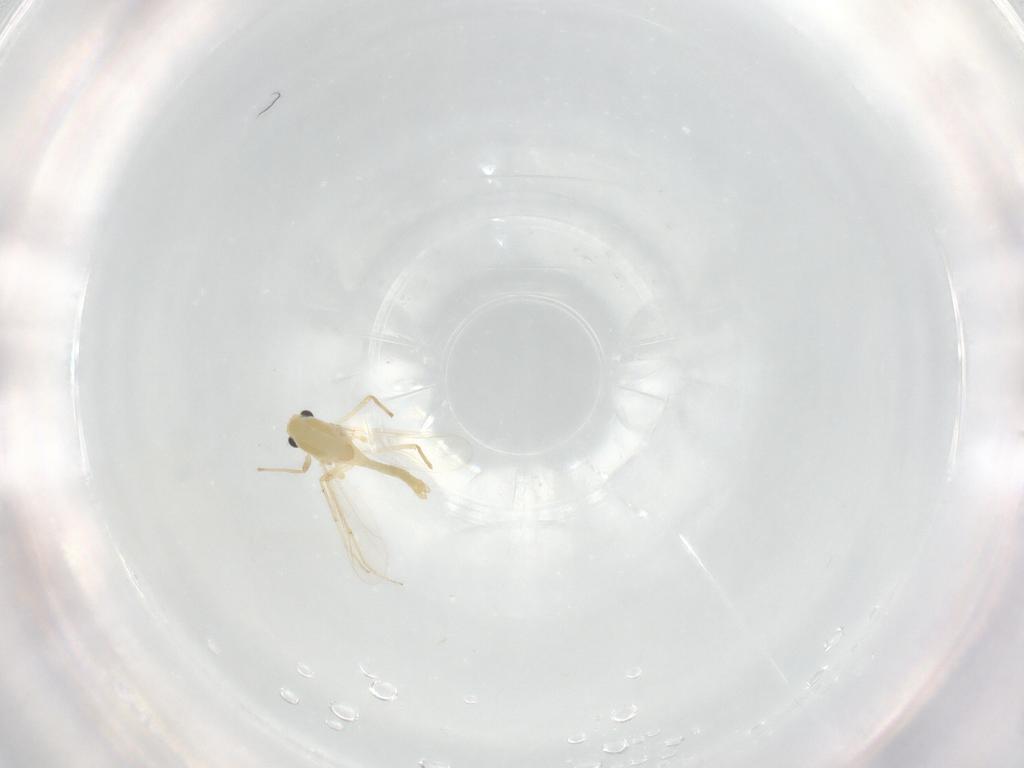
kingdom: Animalia
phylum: Arthropoda
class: Insecta
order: Diptera
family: Chironomidae
